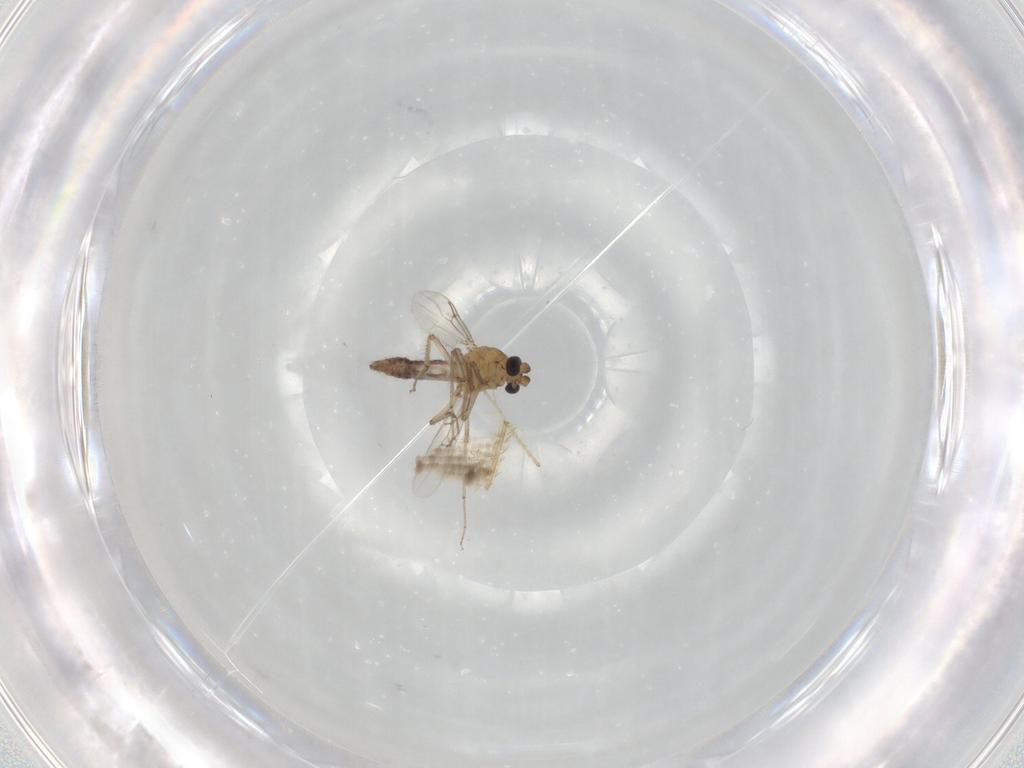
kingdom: Animalia
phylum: Arthropoda
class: Insecta
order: Diptera
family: Ceratopogonidae
